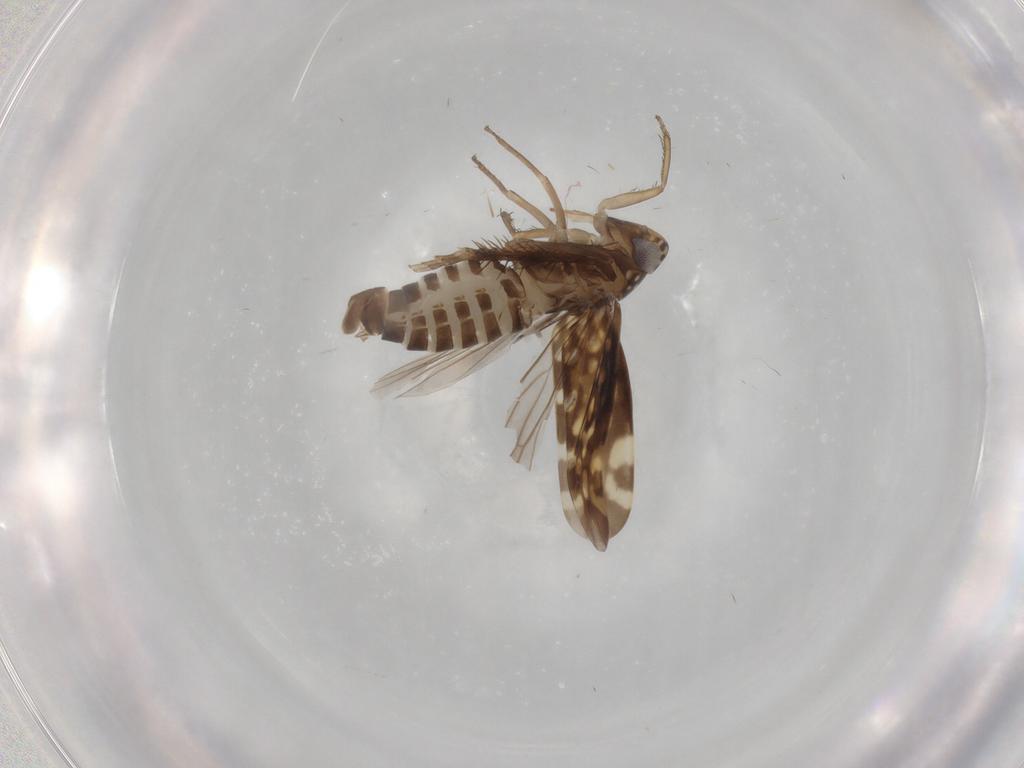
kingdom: Animalia
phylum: Arthropoda
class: Insecta
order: Hemiptera
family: Cicadellidae
